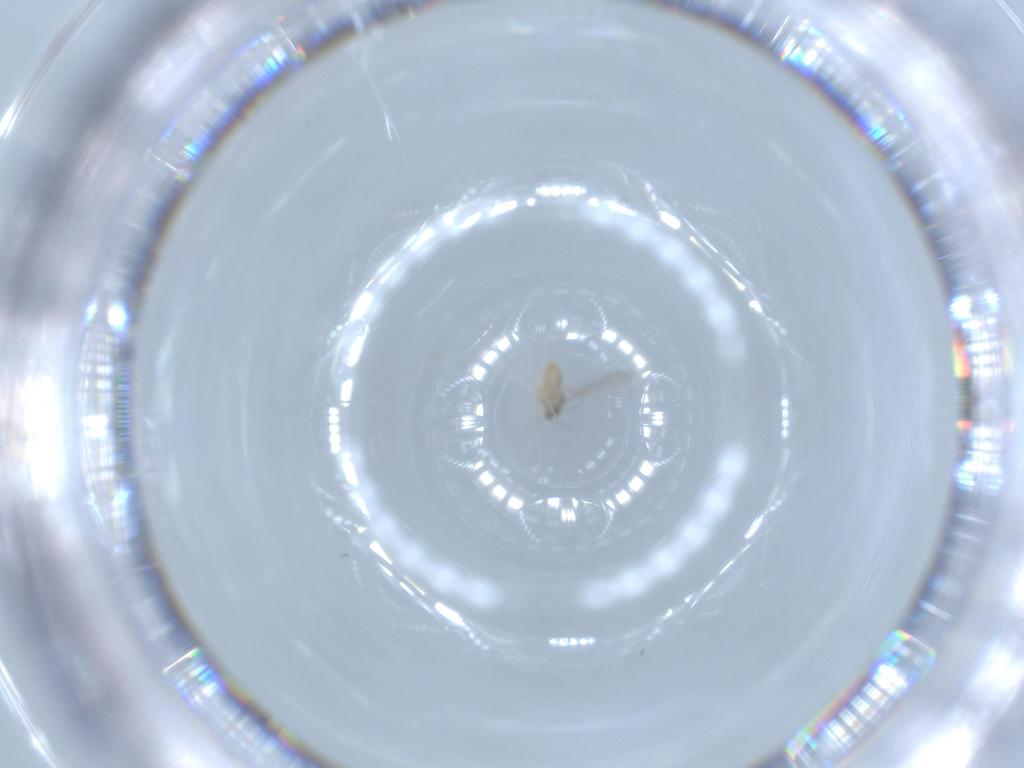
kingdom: Animalia
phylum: Arthropoda
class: Insecta
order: Diptera
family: Cecidomyiidae
